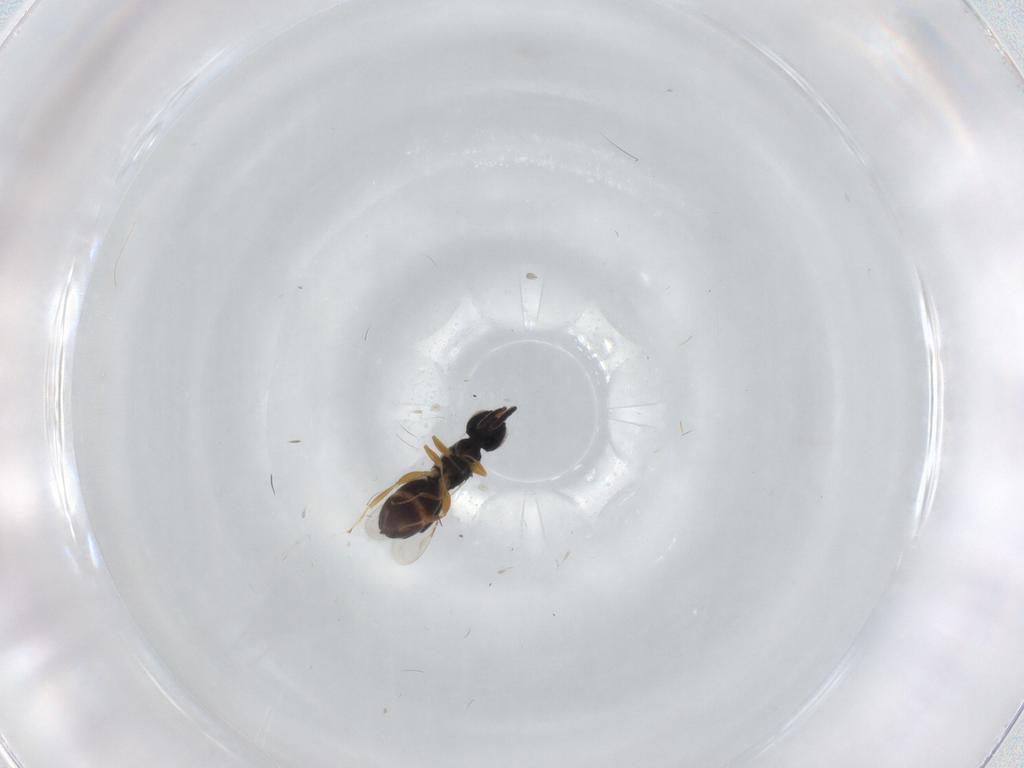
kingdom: Animalia
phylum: Arthropoda
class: Insecta
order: Hymenoptera
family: Ceraphronidae
